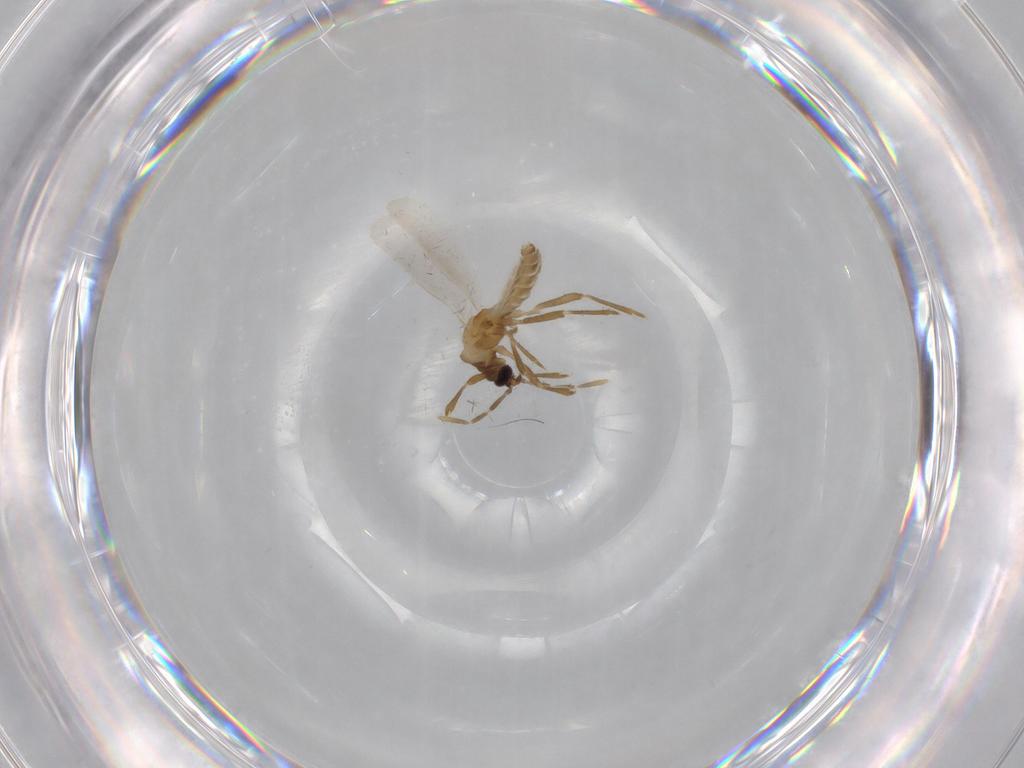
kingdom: Animalia
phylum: Arthropoda
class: Insecta
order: Hemiptera
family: Enicocephalidae
